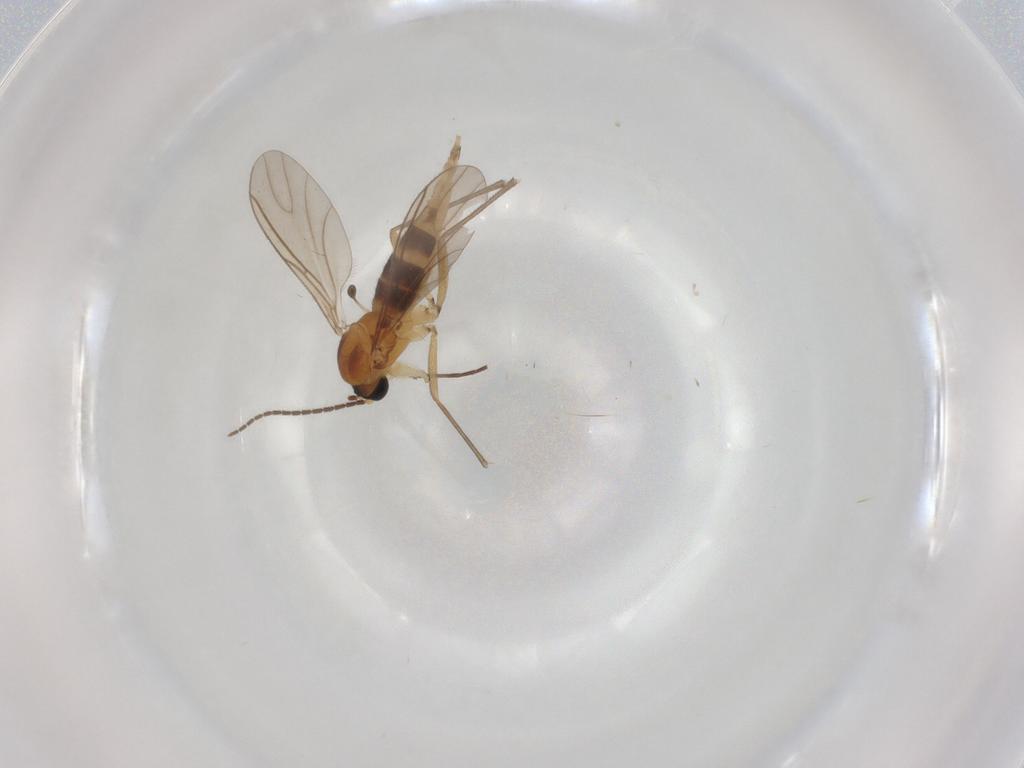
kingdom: Animalia
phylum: Arthropoda
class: Insecta
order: Diptera
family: Sciaridae
